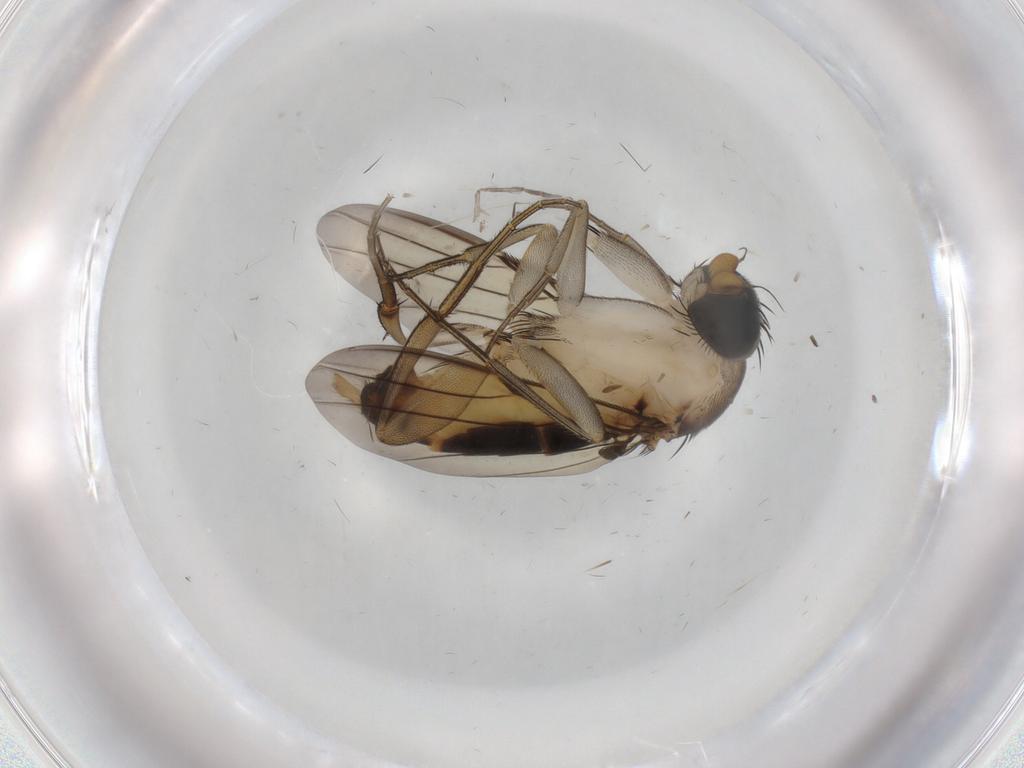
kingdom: Animalia
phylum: Arthropoda
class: Insecta
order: Diptera
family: Phoridae
